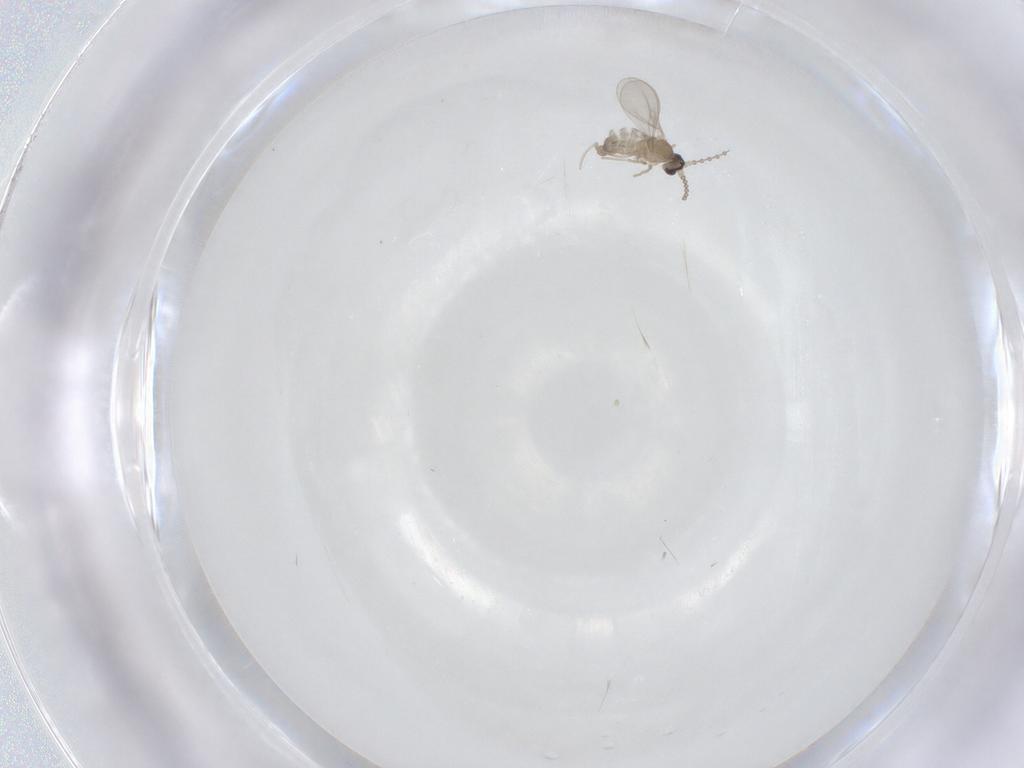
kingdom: Animalia
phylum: Arthropoda
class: Insecta
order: Diptera
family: Cecidomyiidae
